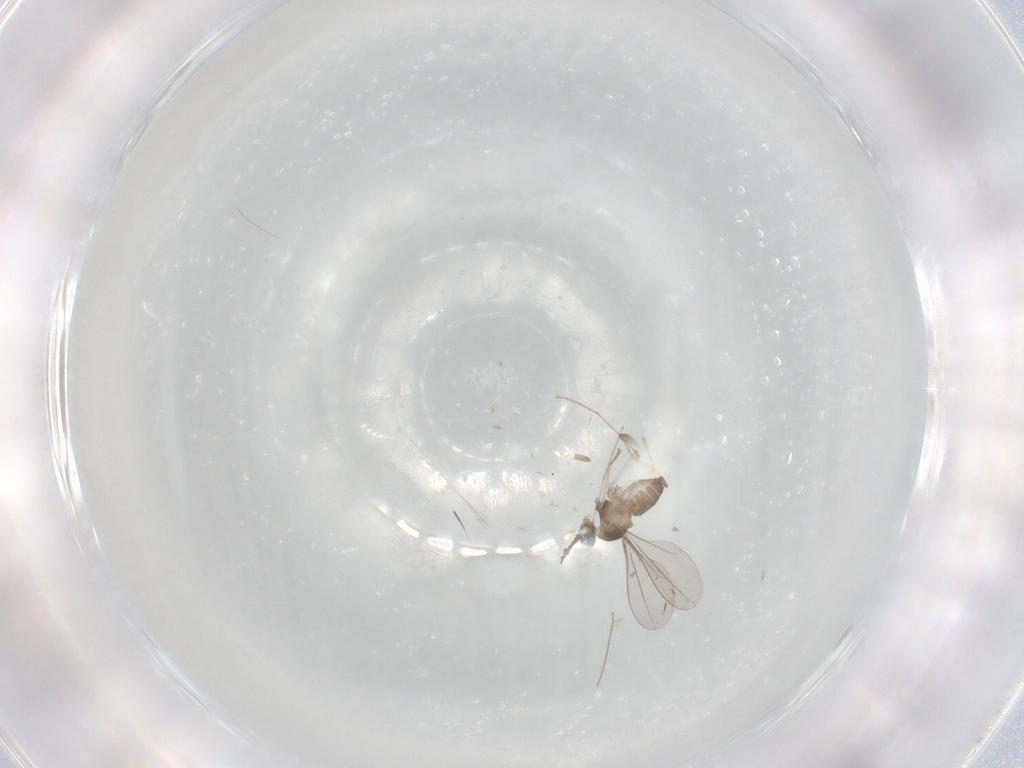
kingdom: Animalia
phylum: Arthropoda
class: Insecta
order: Diptera
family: Cecidomyiidae
